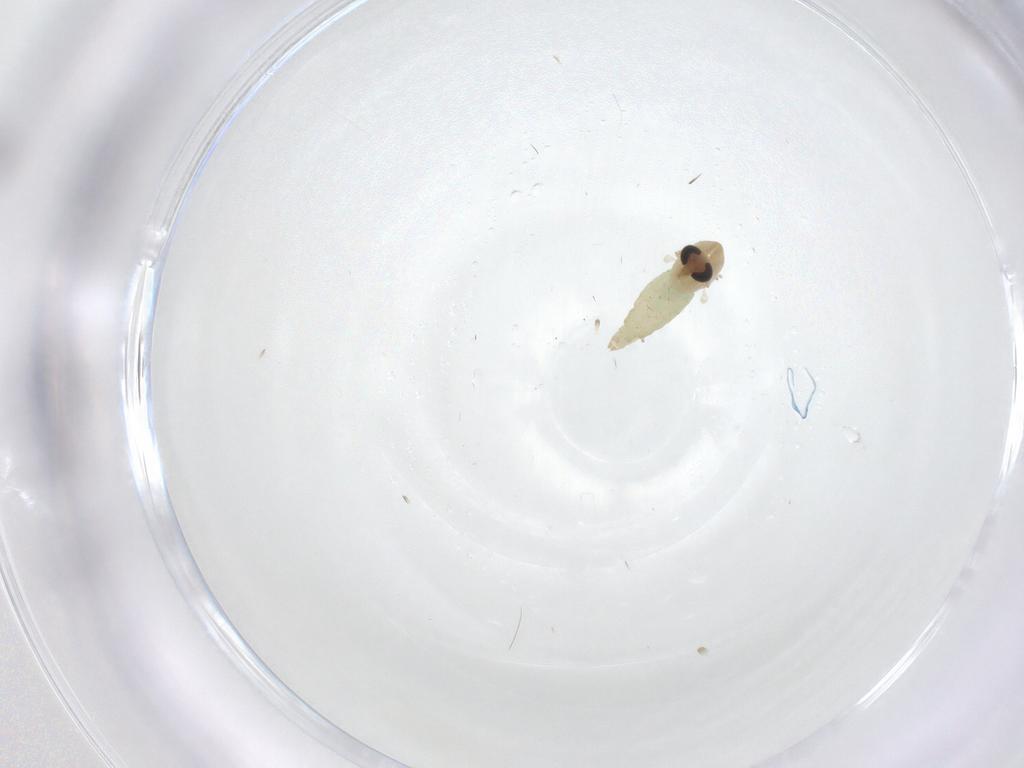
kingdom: Animalia
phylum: Arthropoda
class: Insecta
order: Diptera
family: Chironomidae
